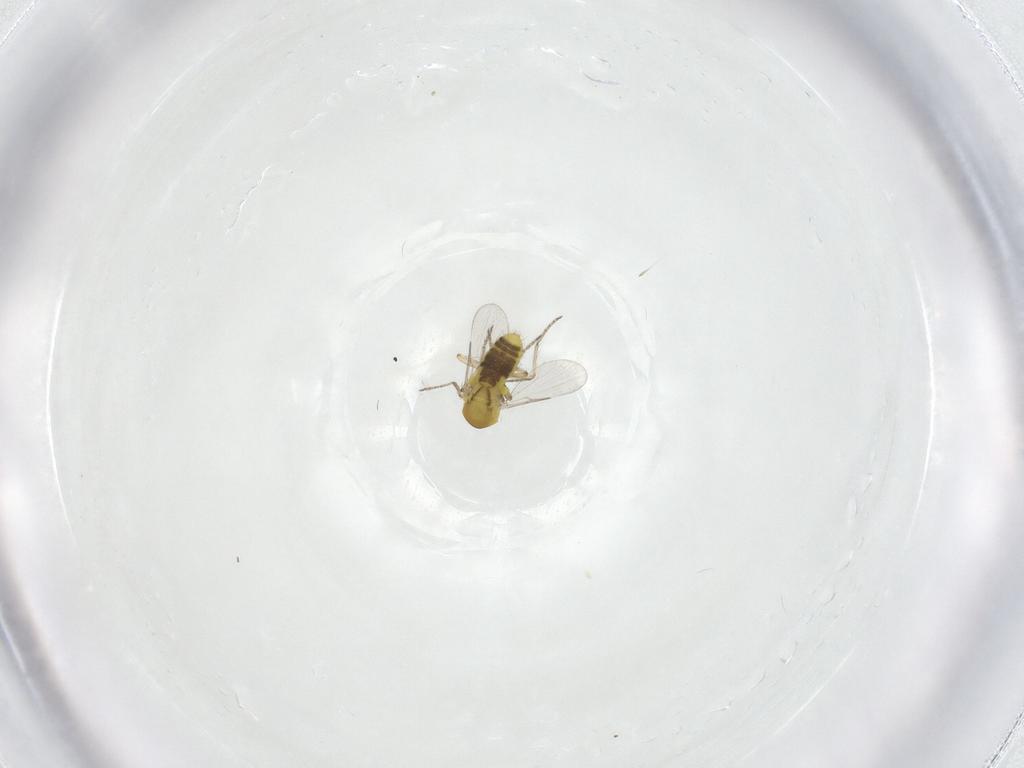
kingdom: Animalia
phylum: Arthropoda
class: Insecta
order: Diptera
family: Ceratopogonidae
